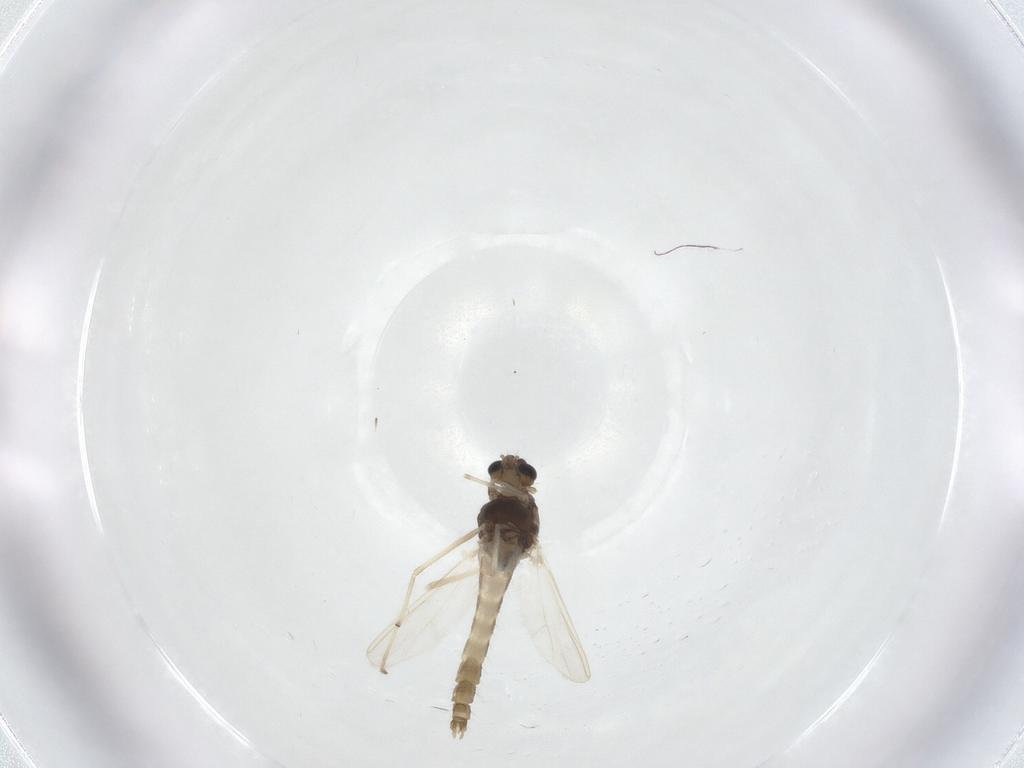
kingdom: Animalia
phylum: Arthropoda
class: Insecta
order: Diptera
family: Chironomidae
